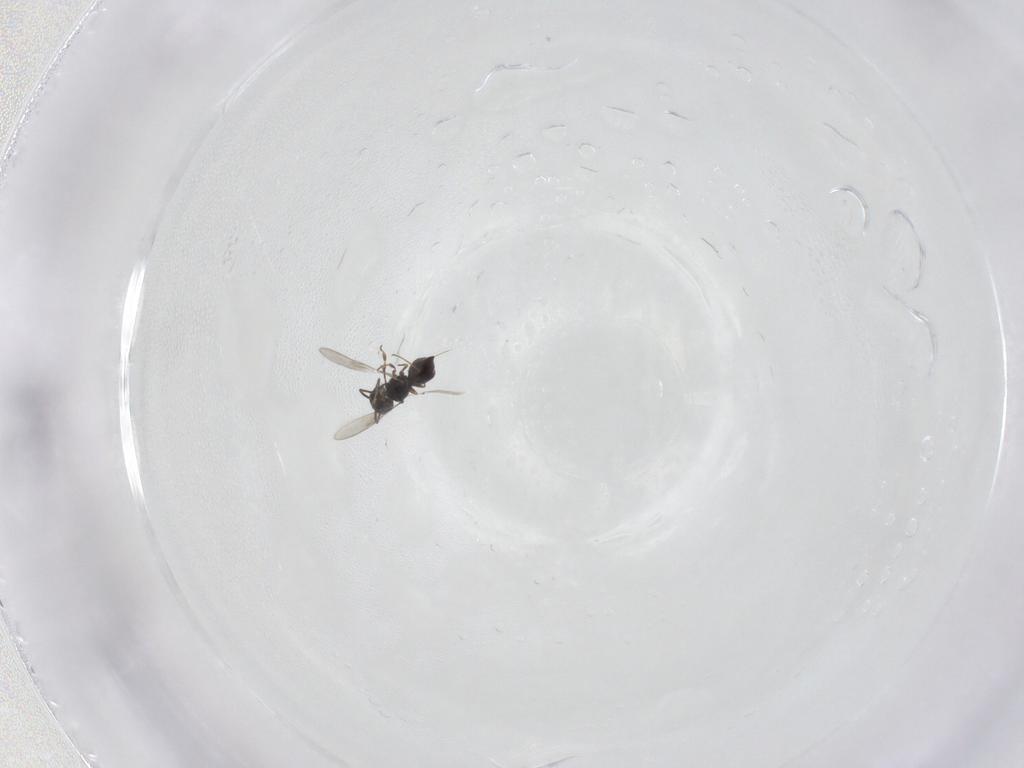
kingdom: Animalia
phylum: Arthropoda
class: Insecta
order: Hymenoptera
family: Scelionidae
